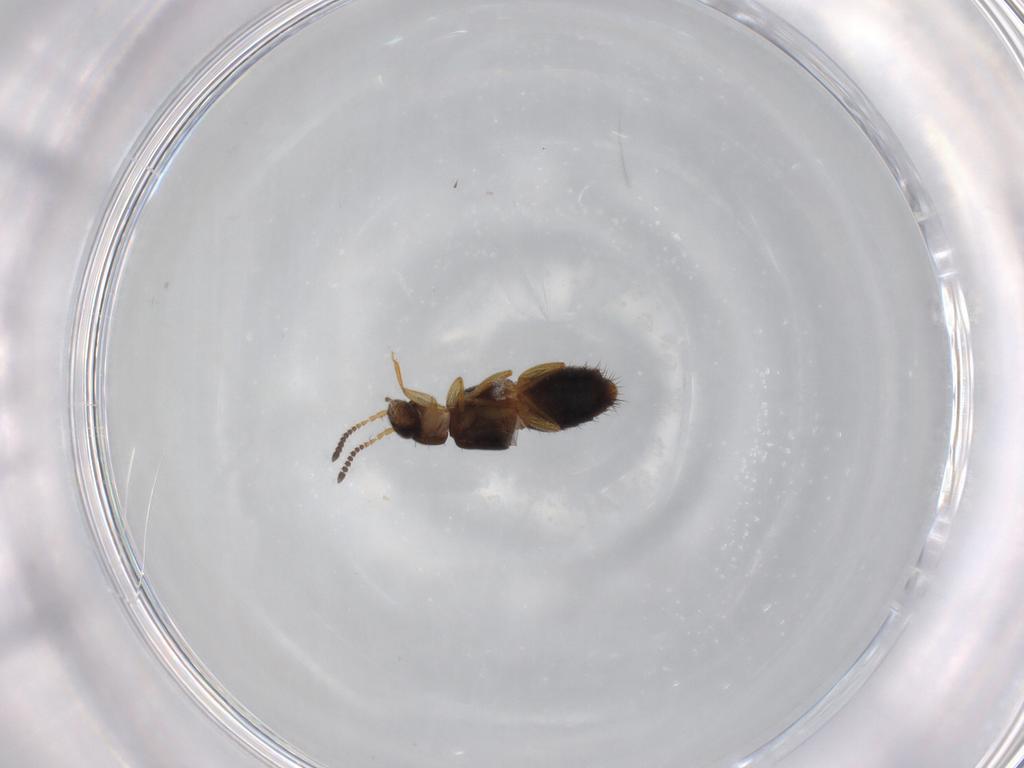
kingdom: Animalia
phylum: Arthropoda
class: Insecta
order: Coleoptera
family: Staphylinidae
